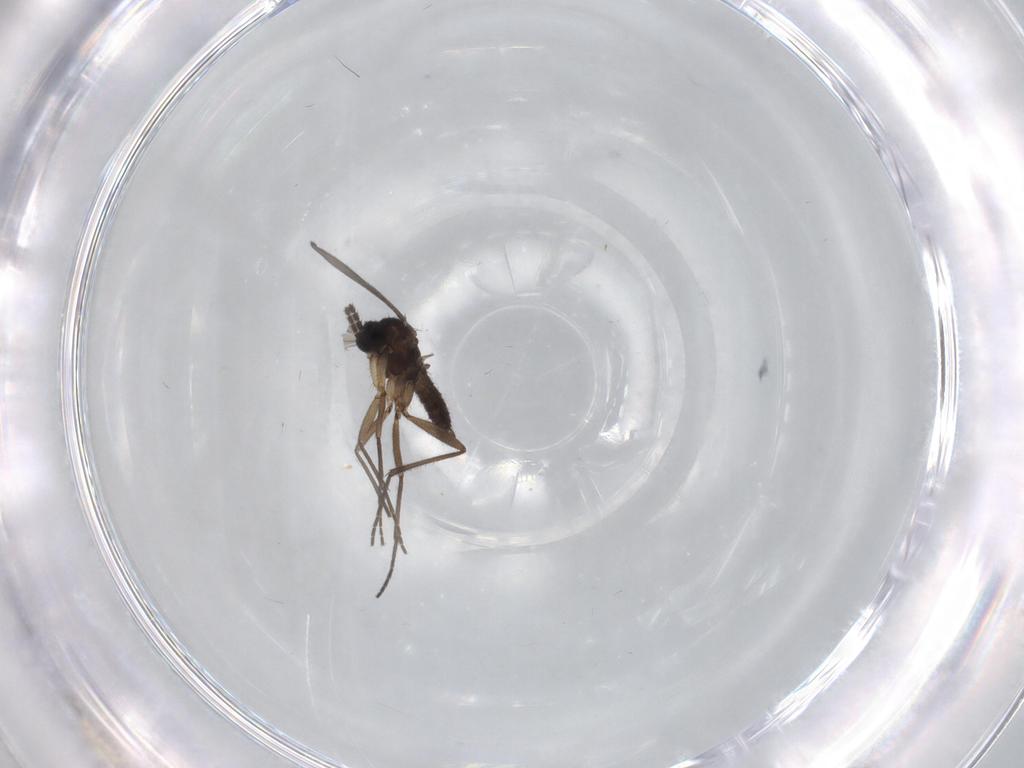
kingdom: Animalia
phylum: Arthropoda
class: Insecta
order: Diptera
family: Sciaridae
